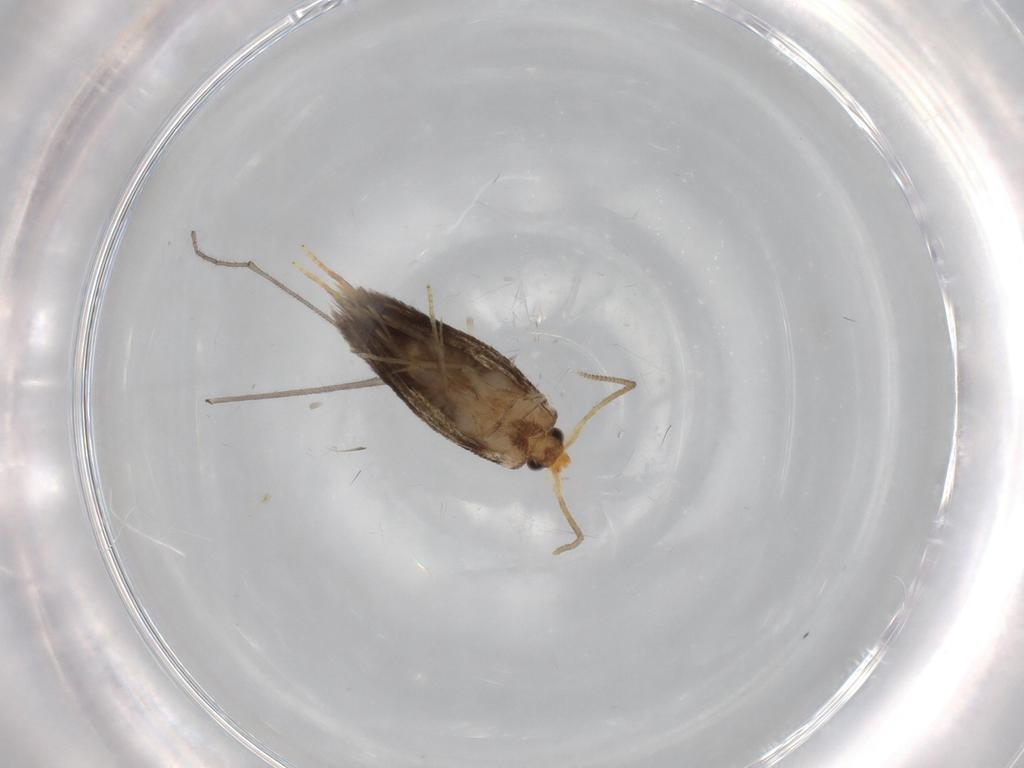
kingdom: Animalia
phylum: Arthropoda
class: Insecta
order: Lepidoptera
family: Nepticulidae
